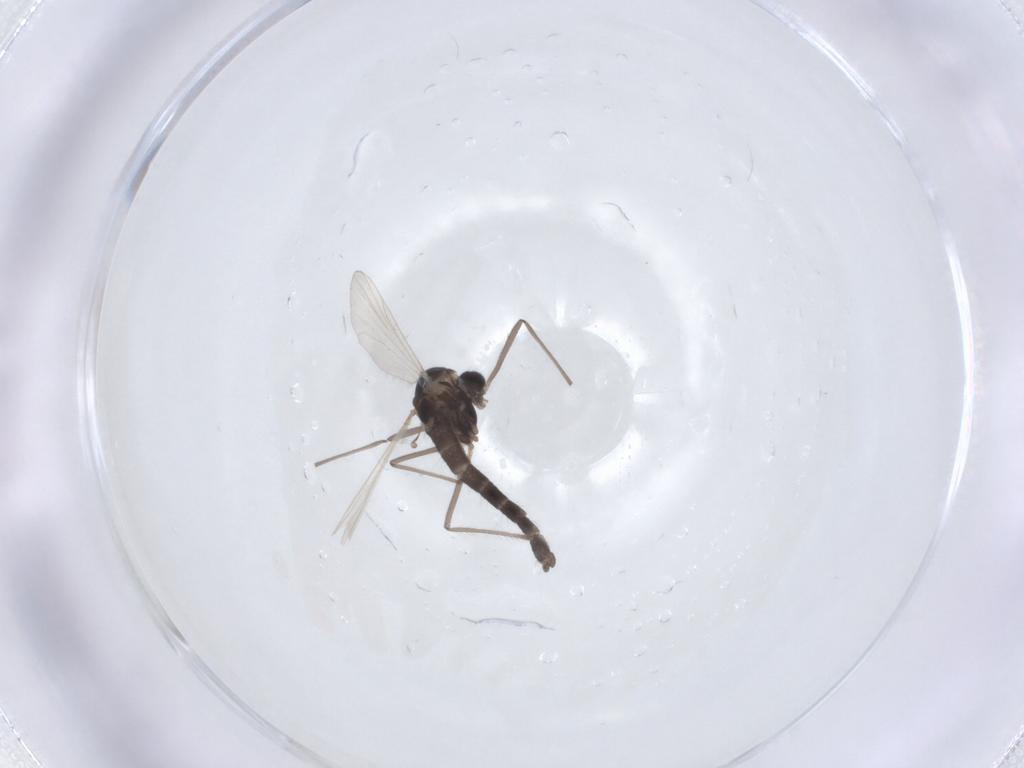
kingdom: Animalia
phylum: Arthropoda
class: Insecta
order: Diptera
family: Chironomidae
